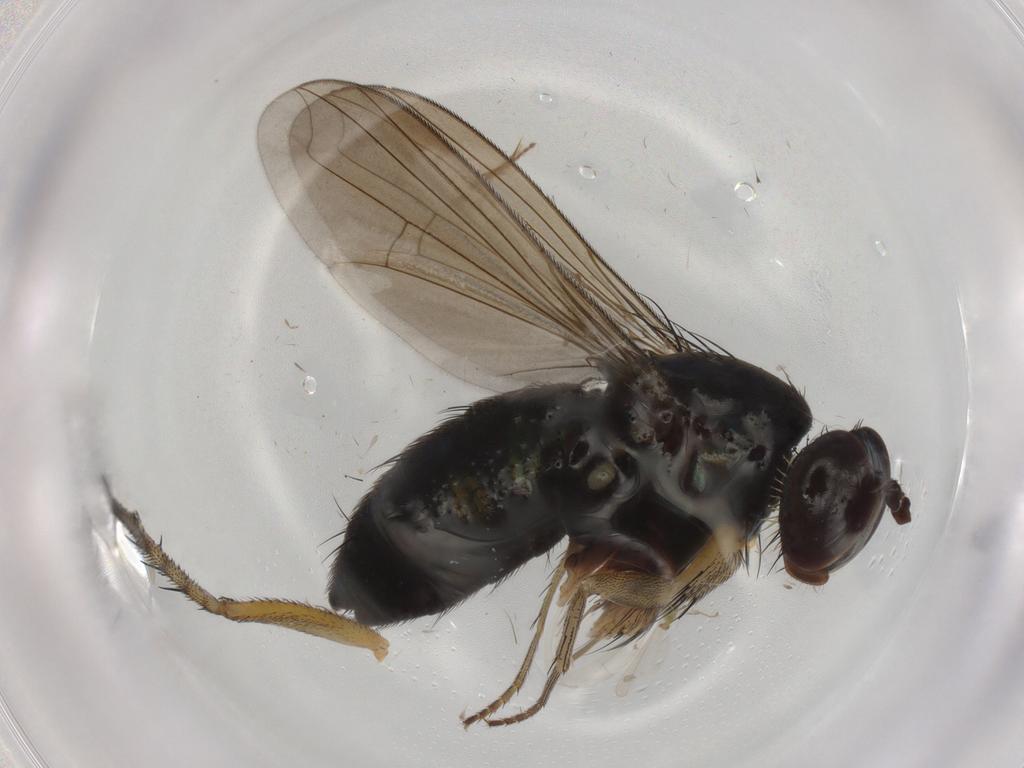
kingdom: Animalia
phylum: Arthropoda
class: Insecta
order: Diptera
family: Dolichopodidae
